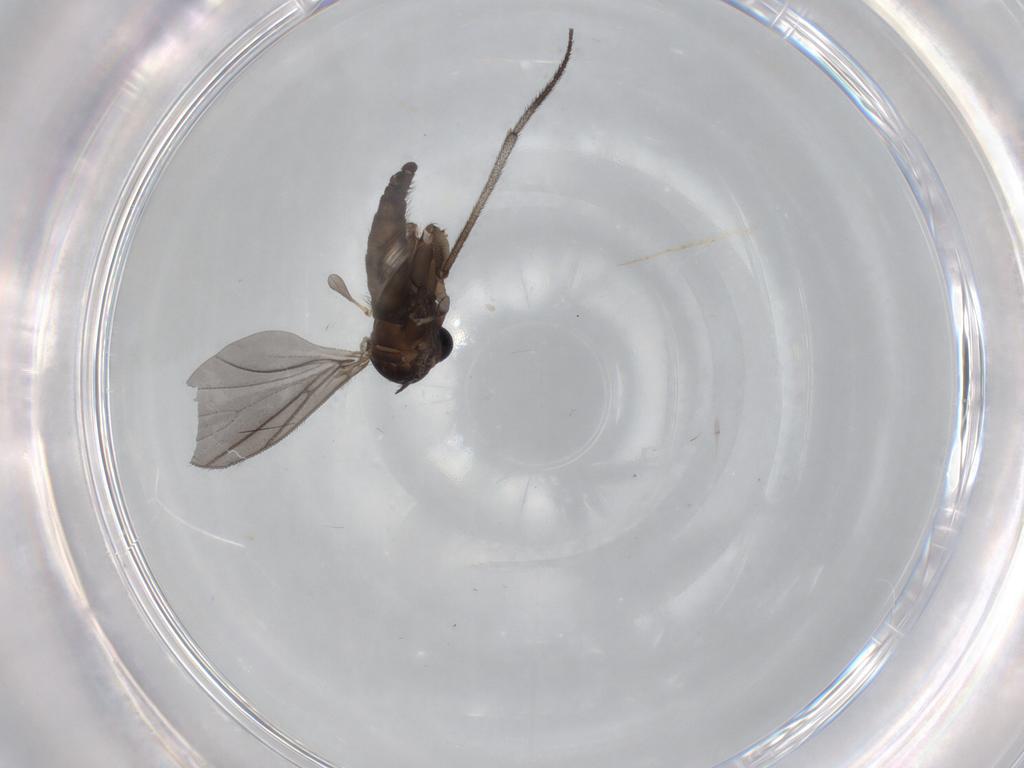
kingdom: Animalia
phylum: Arthropoda
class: Insecta
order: Diptera
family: Sciaridae
